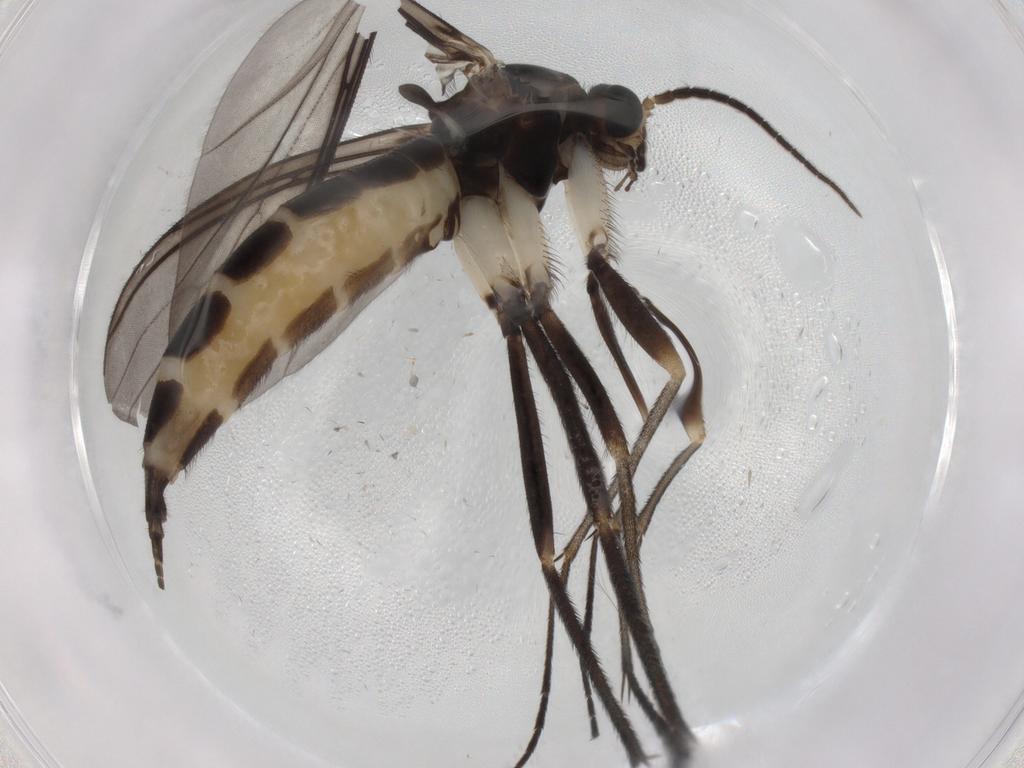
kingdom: Animalia
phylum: Arthropoda
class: Insecta
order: Diptera
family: Sciaridae
